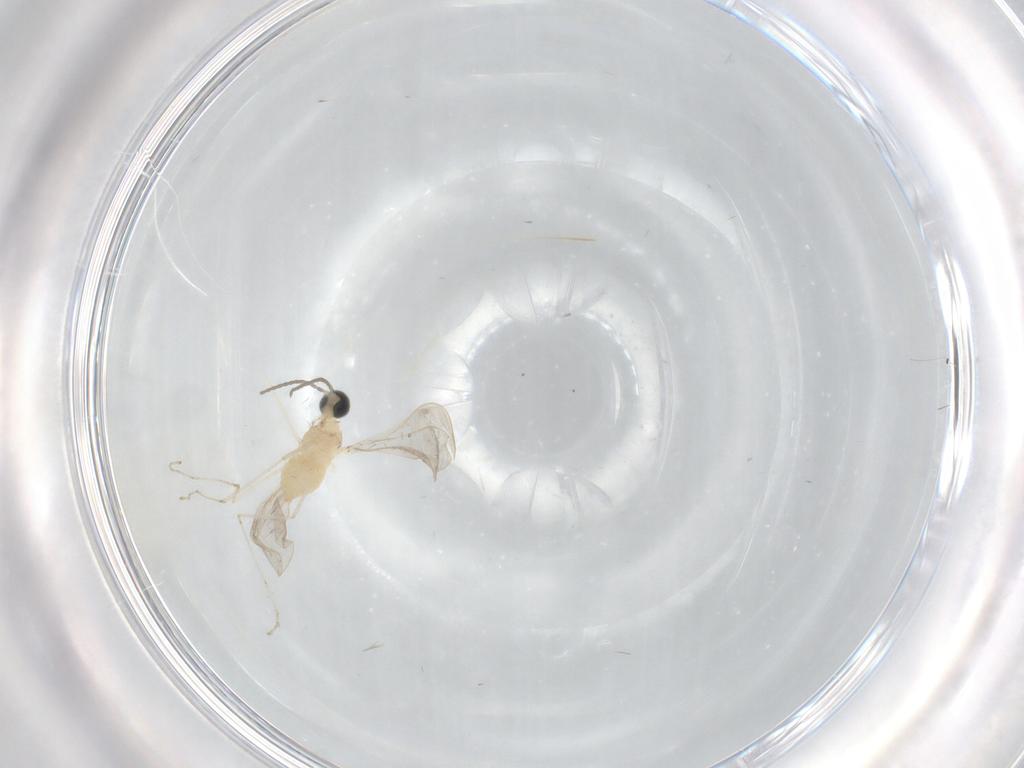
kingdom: Animalia
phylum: Arthropoda
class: Insecta
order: Diptera
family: Cecidomyiidae
